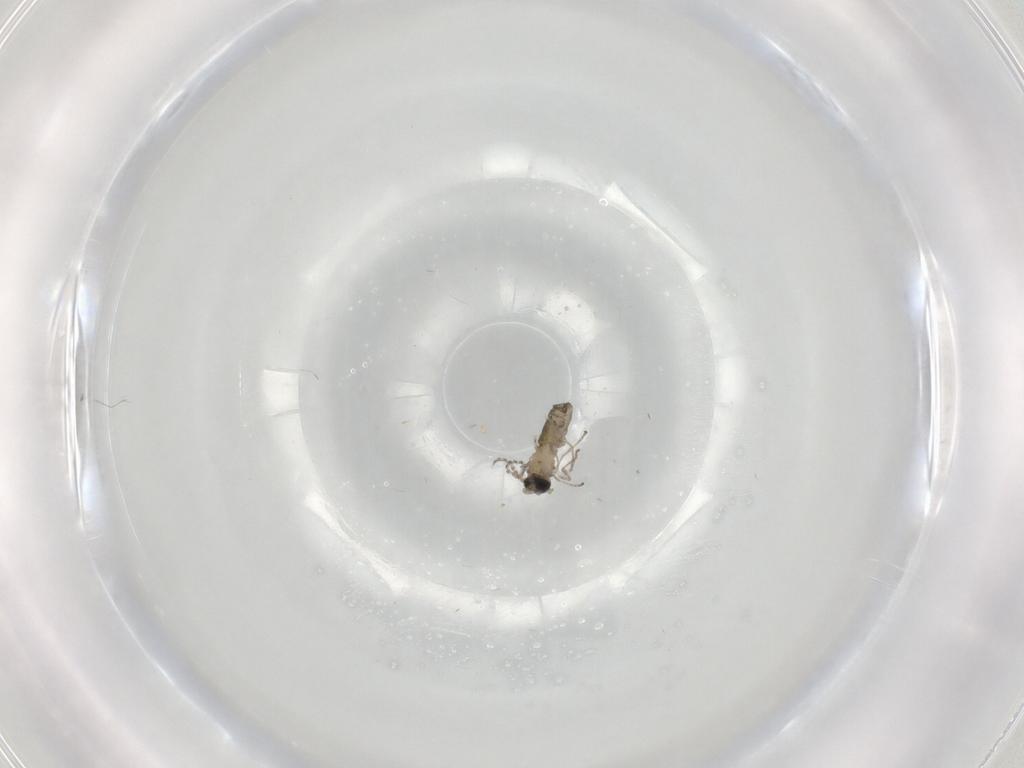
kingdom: Animalia
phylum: Arthropoda
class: Insecta
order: Diptera
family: Cecidomyiidae
